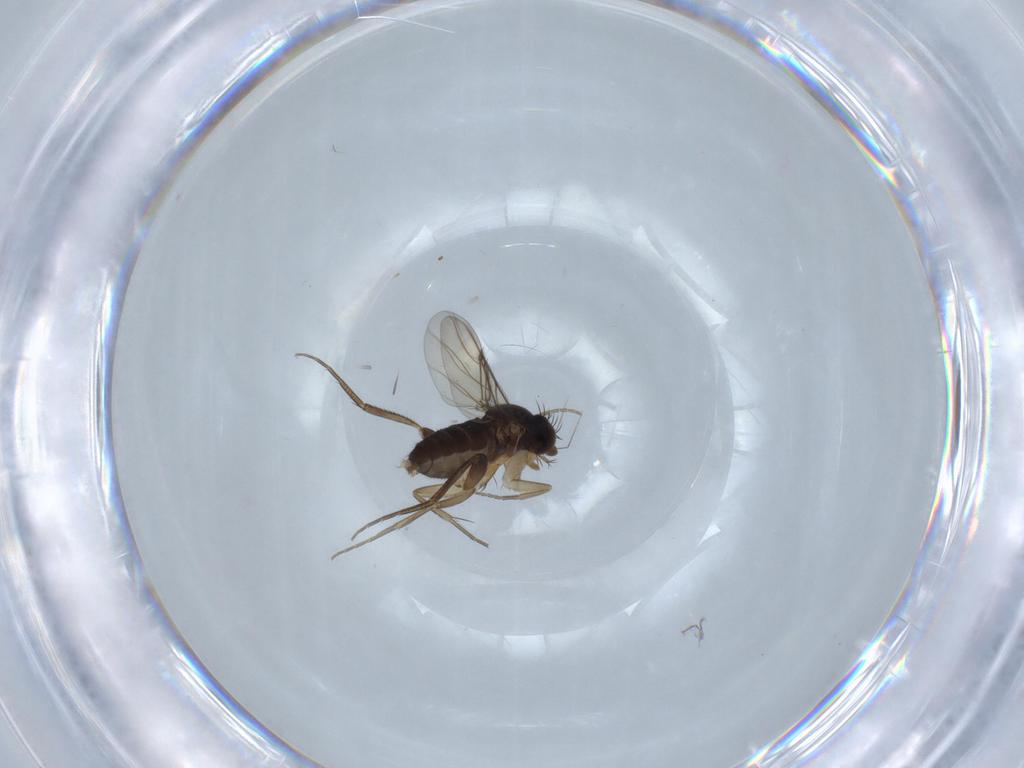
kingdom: Animalia
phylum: Arthropoda
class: Insecta
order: Diptera
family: Phoridae
